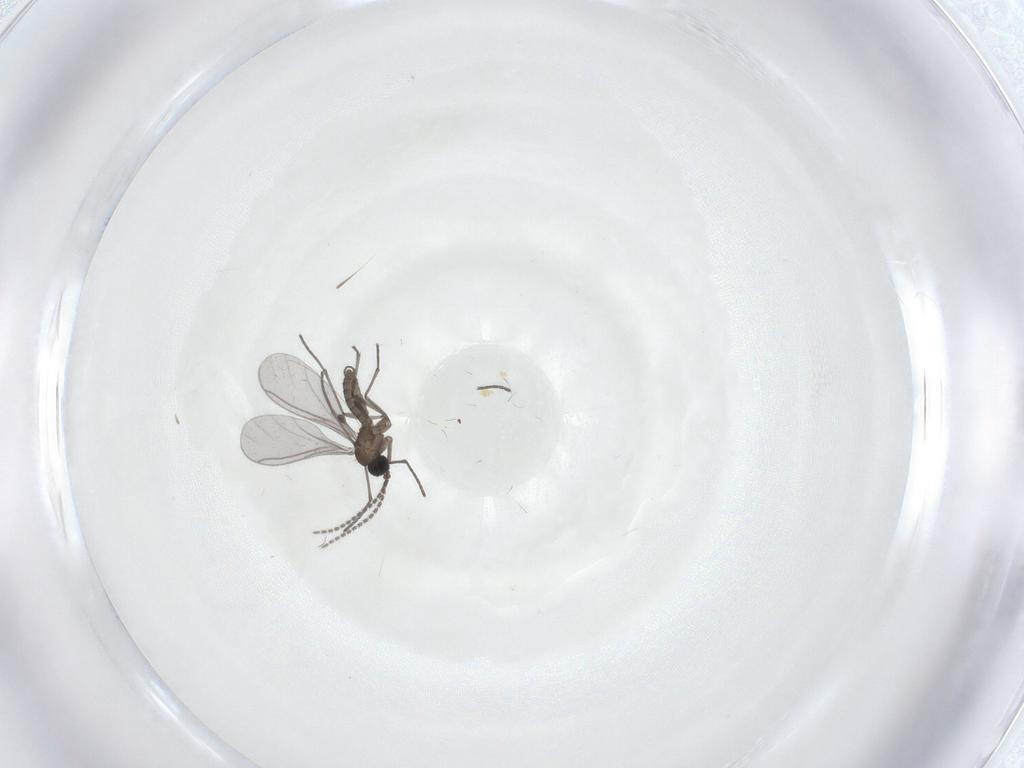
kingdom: Animalia
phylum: Arthropoda
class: Insecta
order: Diptera
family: Sciaridae
